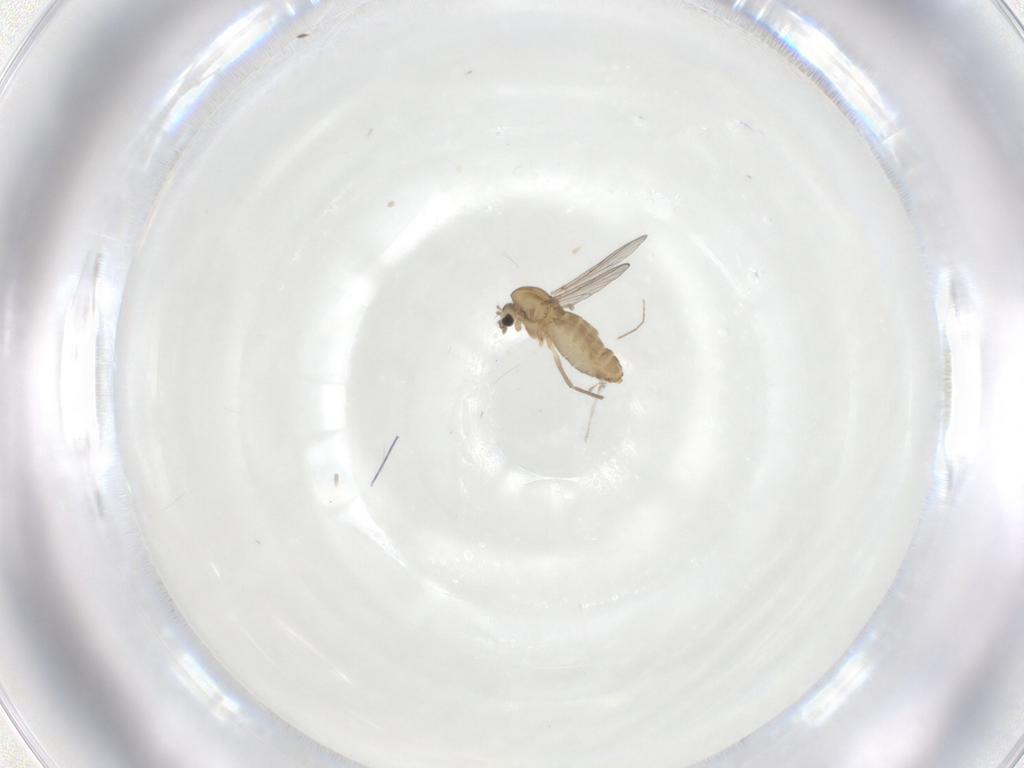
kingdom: Animalia
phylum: Arthropoda
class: Insecta
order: Diptera
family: Chironomidae
